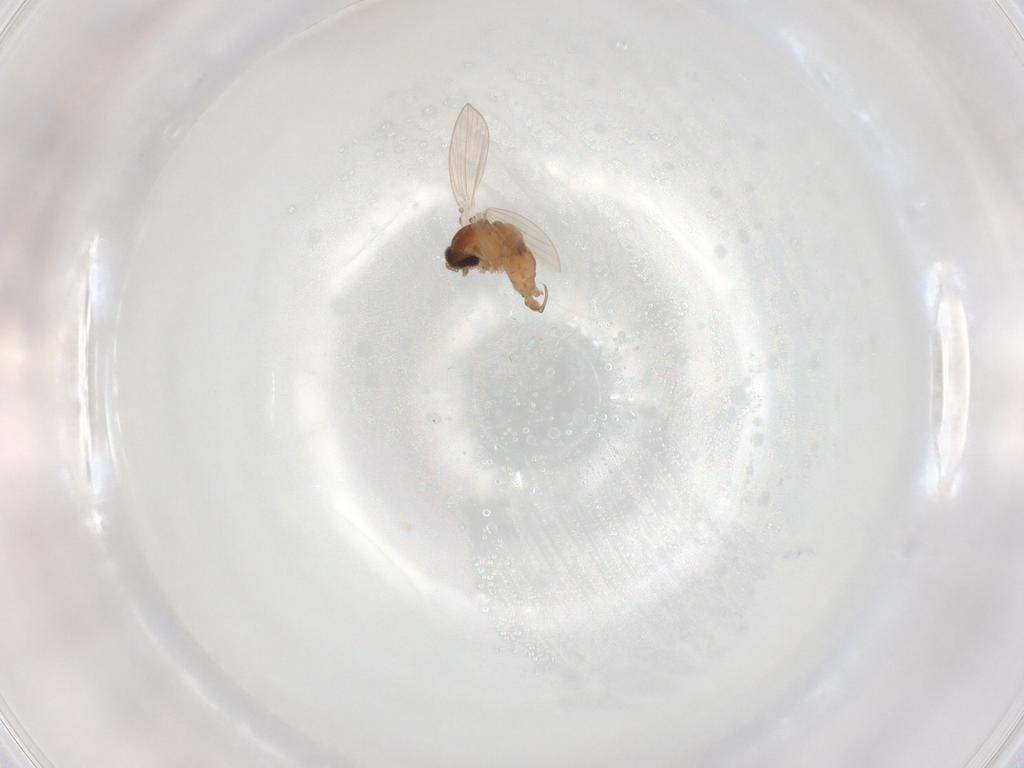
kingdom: Animalia
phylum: Arthropoda
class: Insecta
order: Diptera
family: Psychodidae
